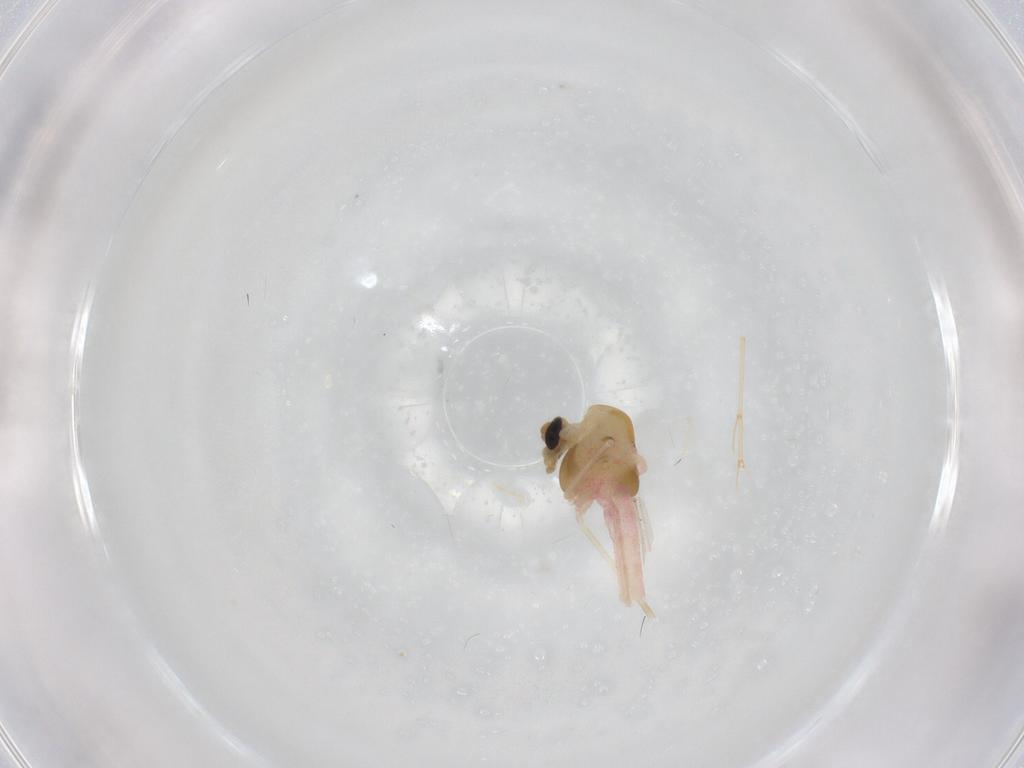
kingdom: Animalia
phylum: Arthropoda
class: Insecta
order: Diptera
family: Chironomidae
